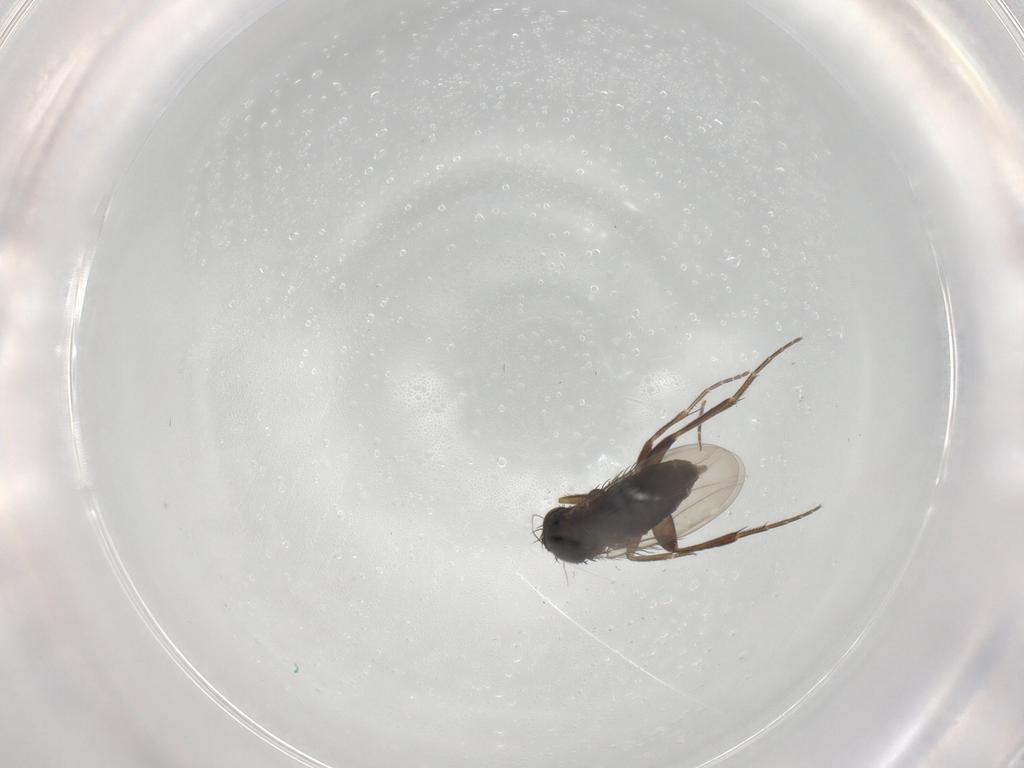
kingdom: Animalia
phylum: Arthropoda
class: Insecta
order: Diptera
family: Phoridae
